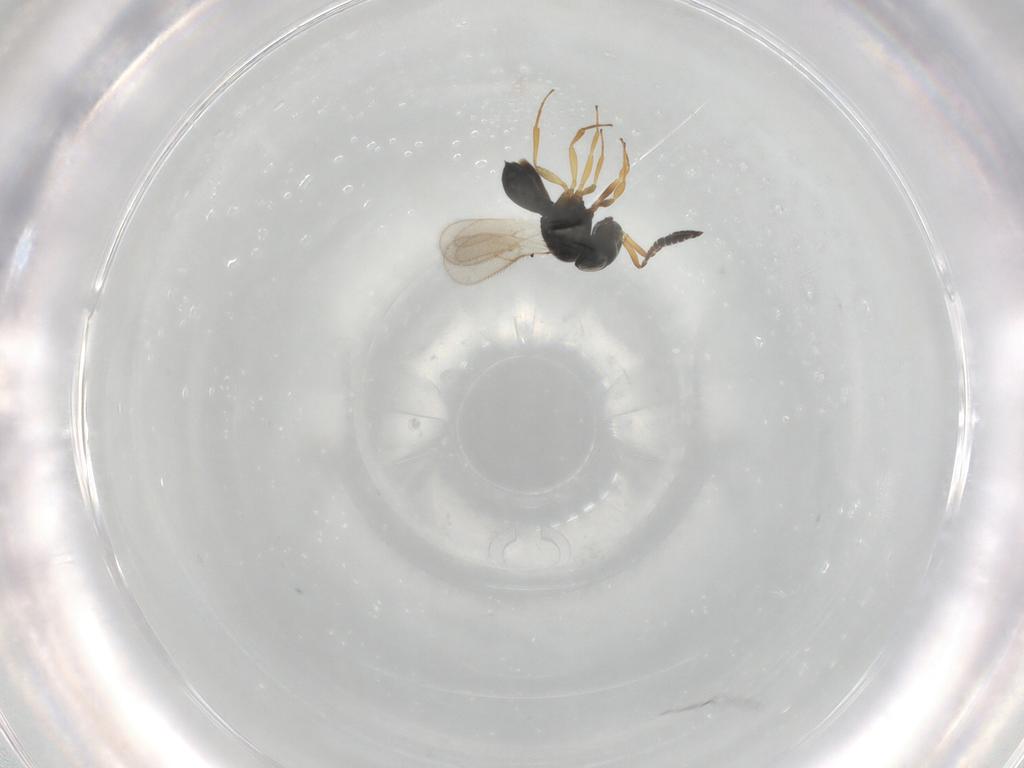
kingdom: Animalia
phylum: Arthropoda
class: Insecta
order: Hymenoptera
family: Scelionidae
